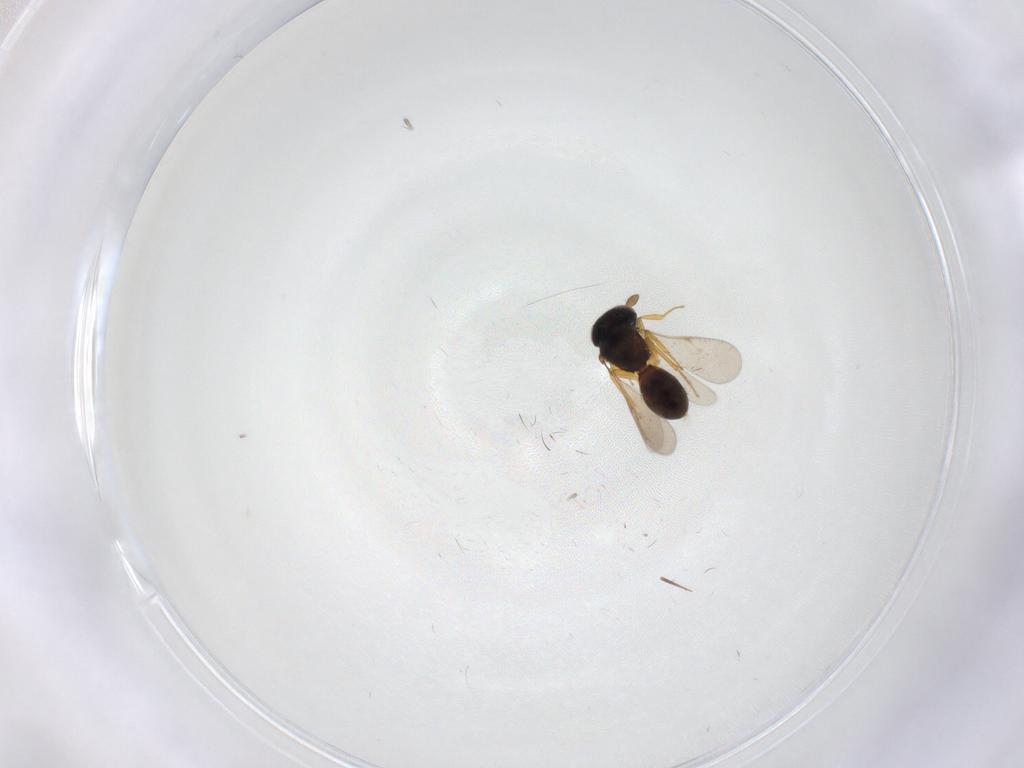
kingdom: Animalia
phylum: Arthropoda
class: Insecta
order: Hymenoptera
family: Scelionidae
